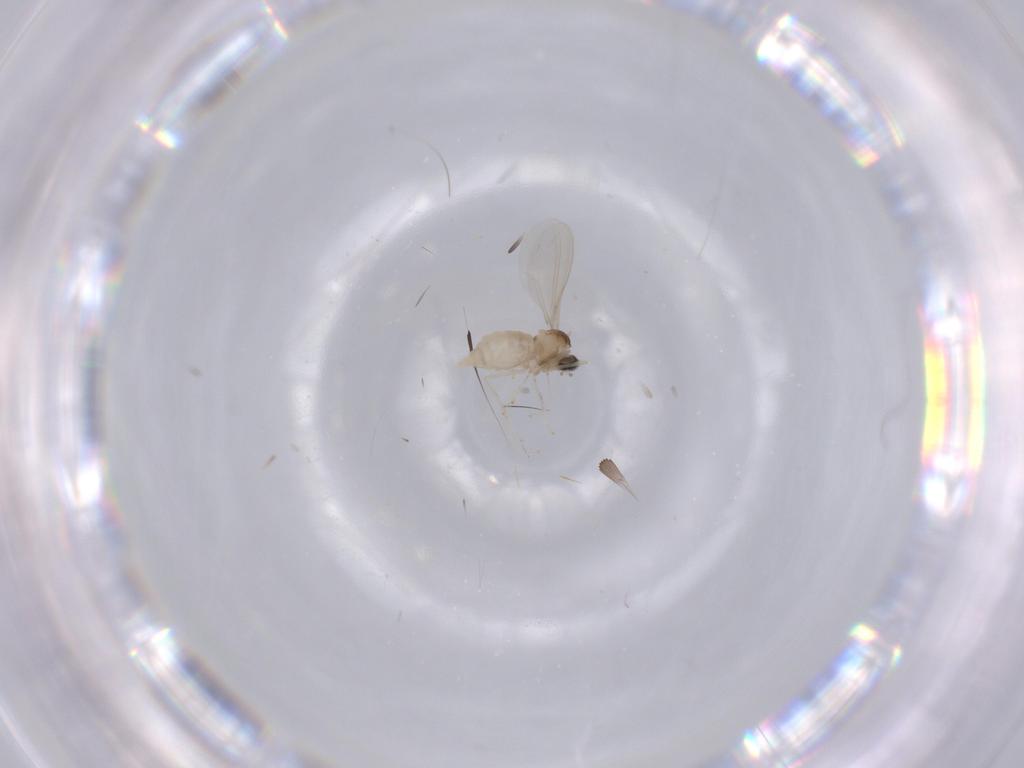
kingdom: Animalia
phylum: Arthropoda
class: Insecta
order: Diptera
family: Cecidomyiidae
